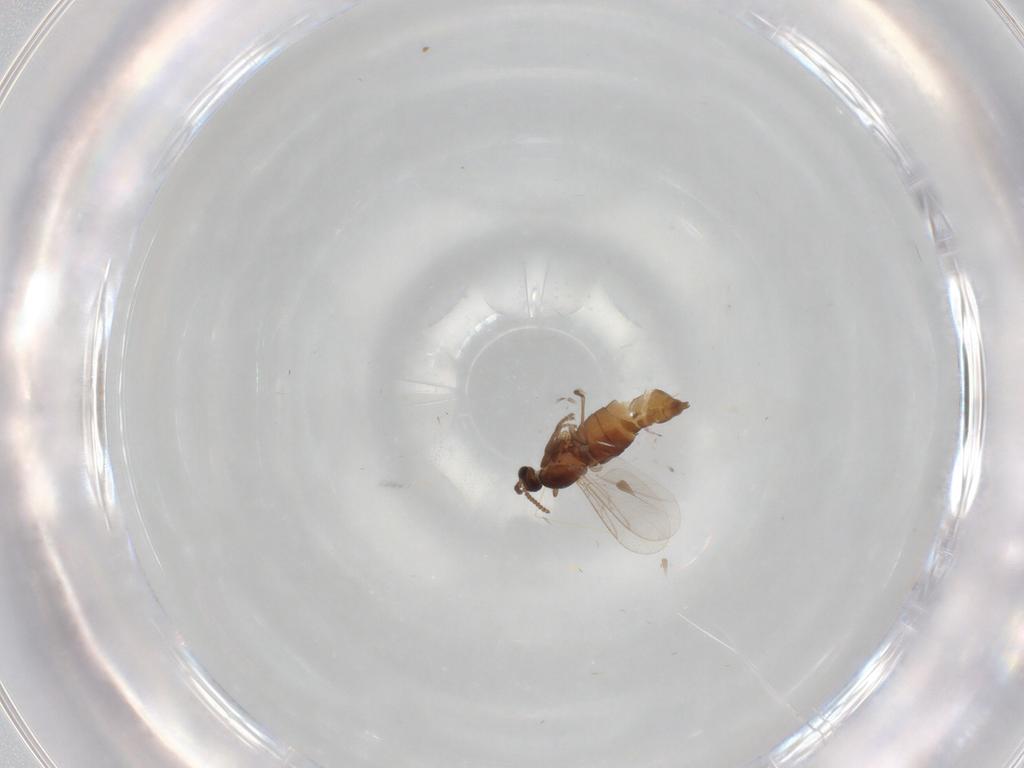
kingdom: Animalia
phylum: Arthropoda
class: Insecta
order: Diptera
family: Cecidomyiidae
